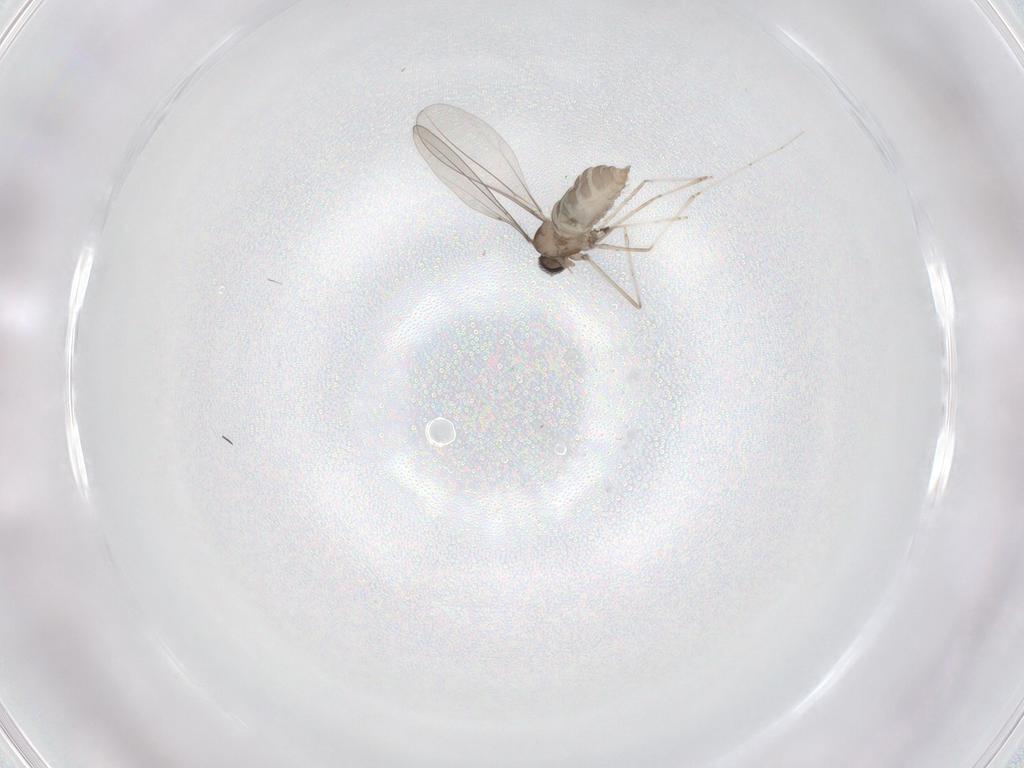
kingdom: Animalia
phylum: Arthropoda
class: Insecta
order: Diptera
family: Cecidomyiidae
